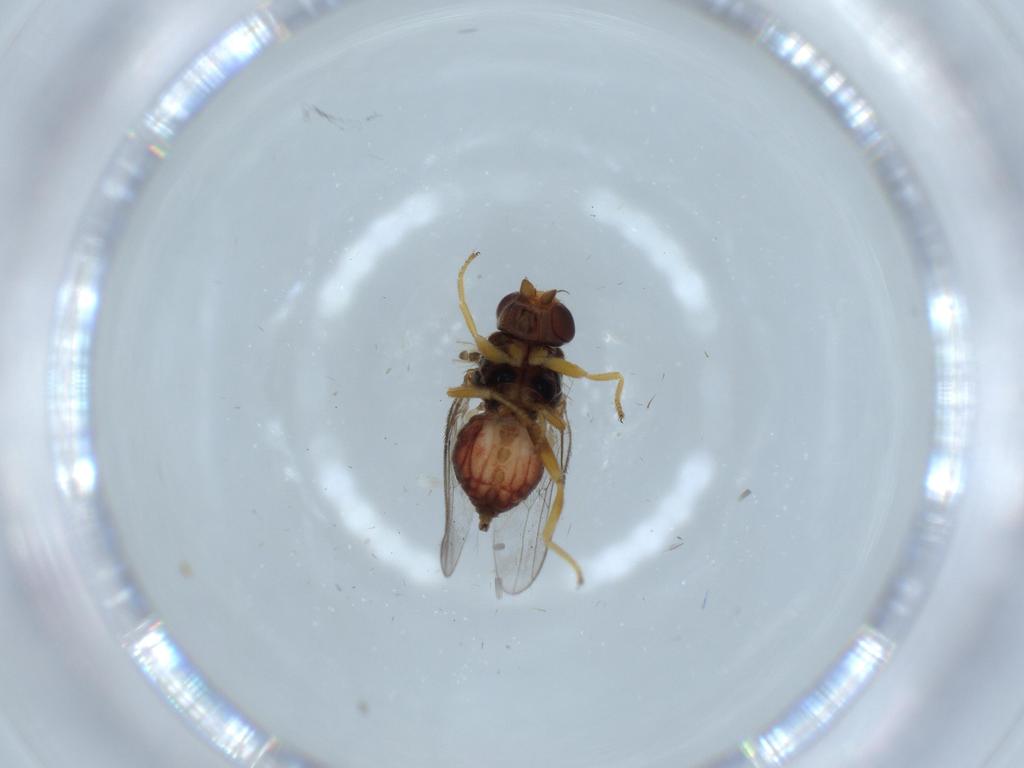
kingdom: Animalia
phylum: Arthropoda
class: Insecta
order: Diptera
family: Chloropidae
